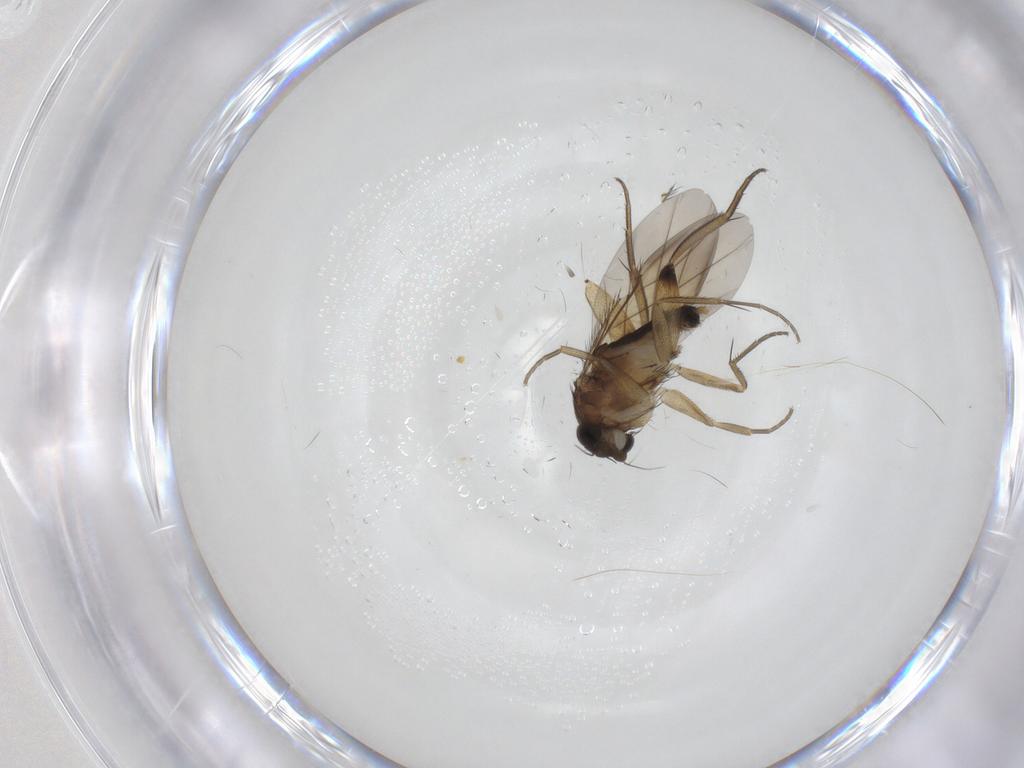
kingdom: Animalia
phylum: Arthropoda
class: Insecta
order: Diptera
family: Phoridae
